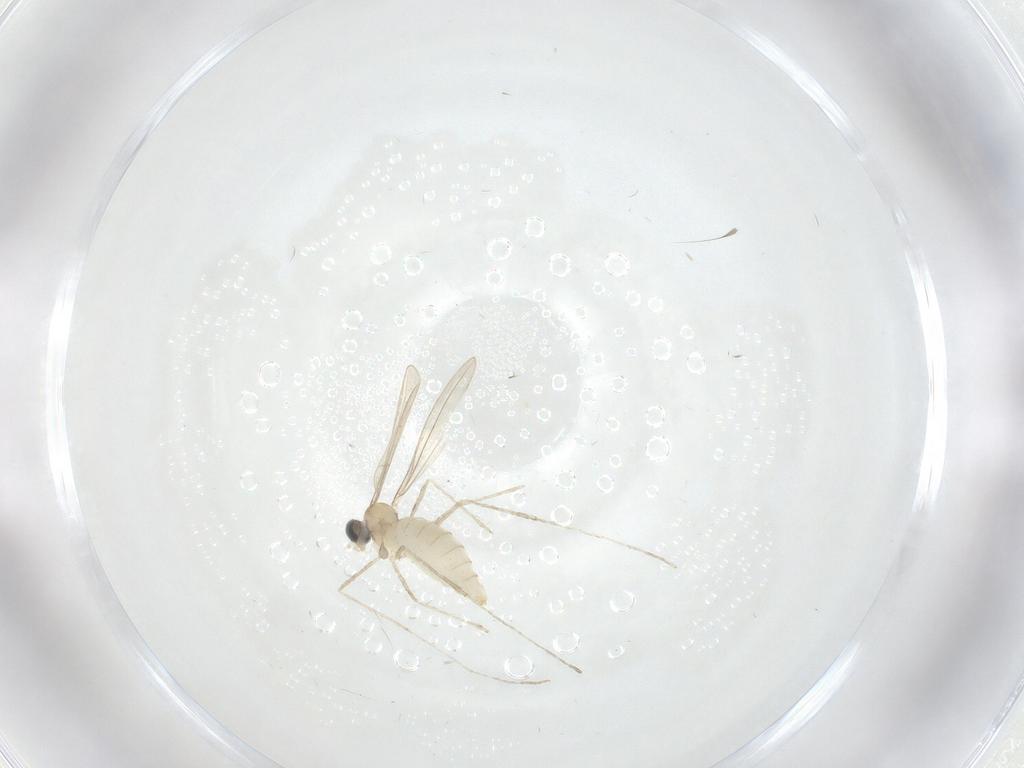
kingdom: Animalia
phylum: Arthropoda
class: Insecta
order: Diptera
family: Cecidomyiidae
